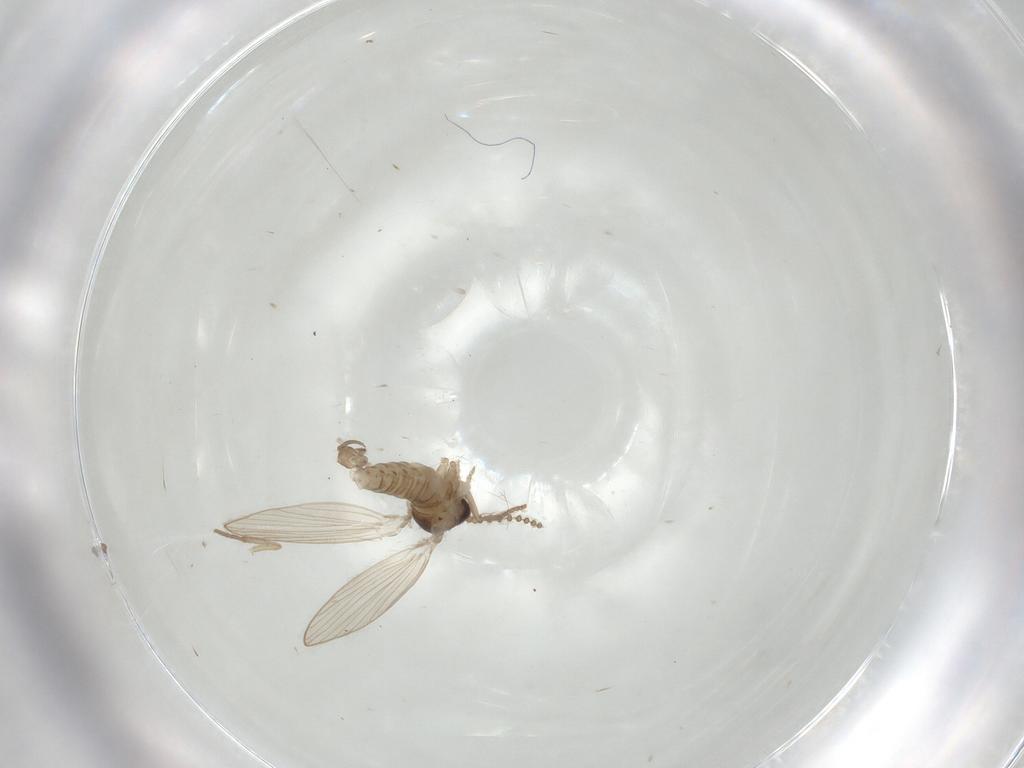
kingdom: Animalia
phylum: Arthropoda
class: Insecta
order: Diptera
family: Psychodidae
